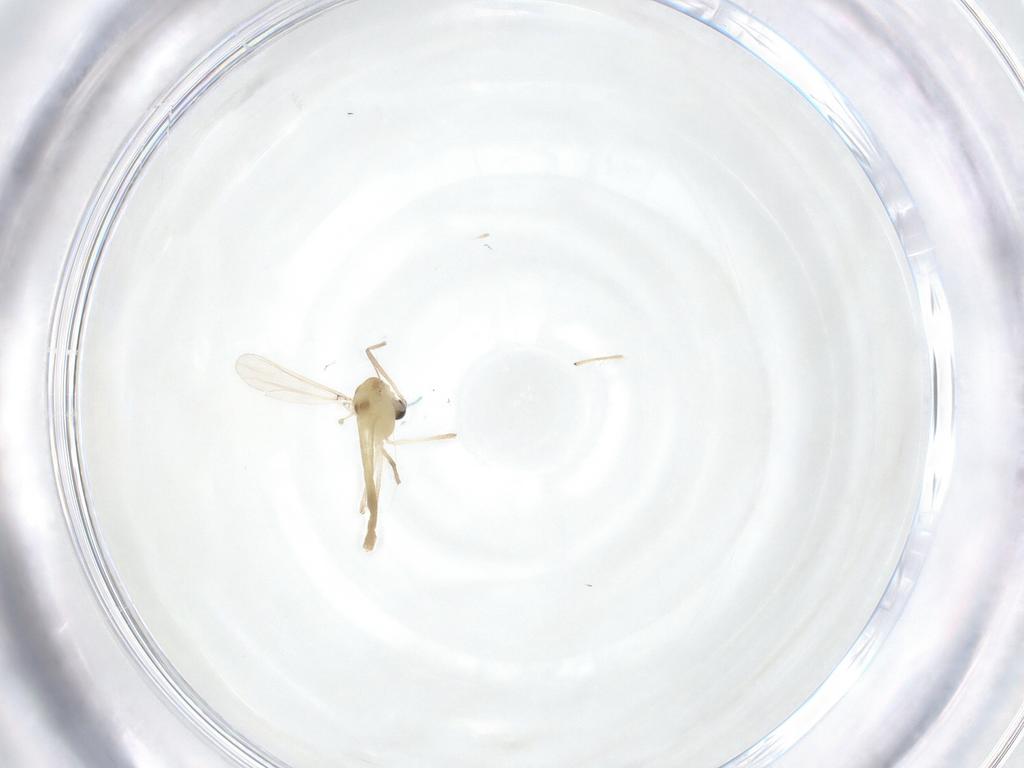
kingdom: Animalia
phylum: Arthropoda
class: Insecta
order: Diptera
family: Chironomidae
